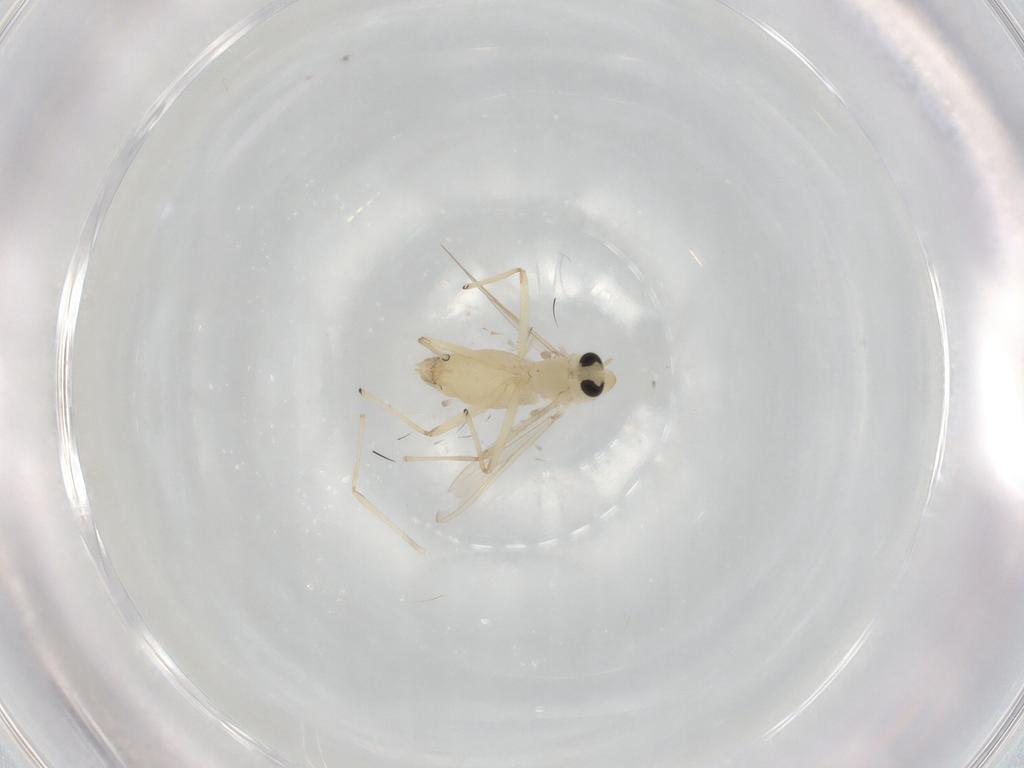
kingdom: Animalia
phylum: Arthropoda
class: Insecta
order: Diptera
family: Chironomidae
